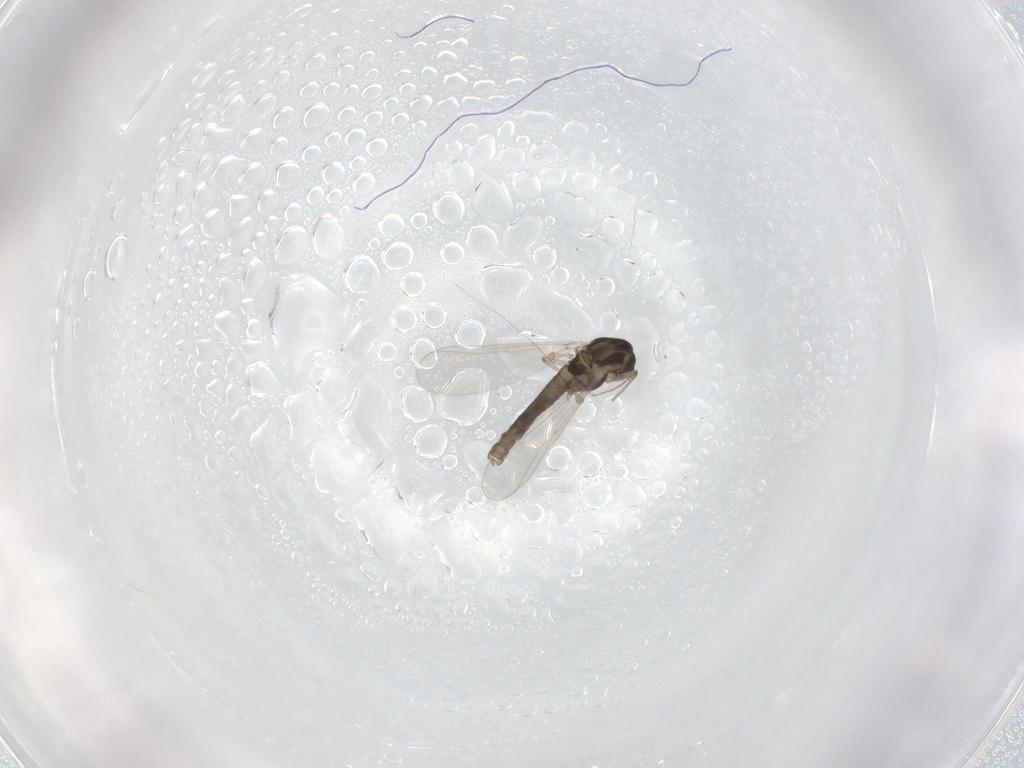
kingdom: Animalia
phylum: Arthropoda
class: Insecta
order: Diptera
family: Chironomidae
